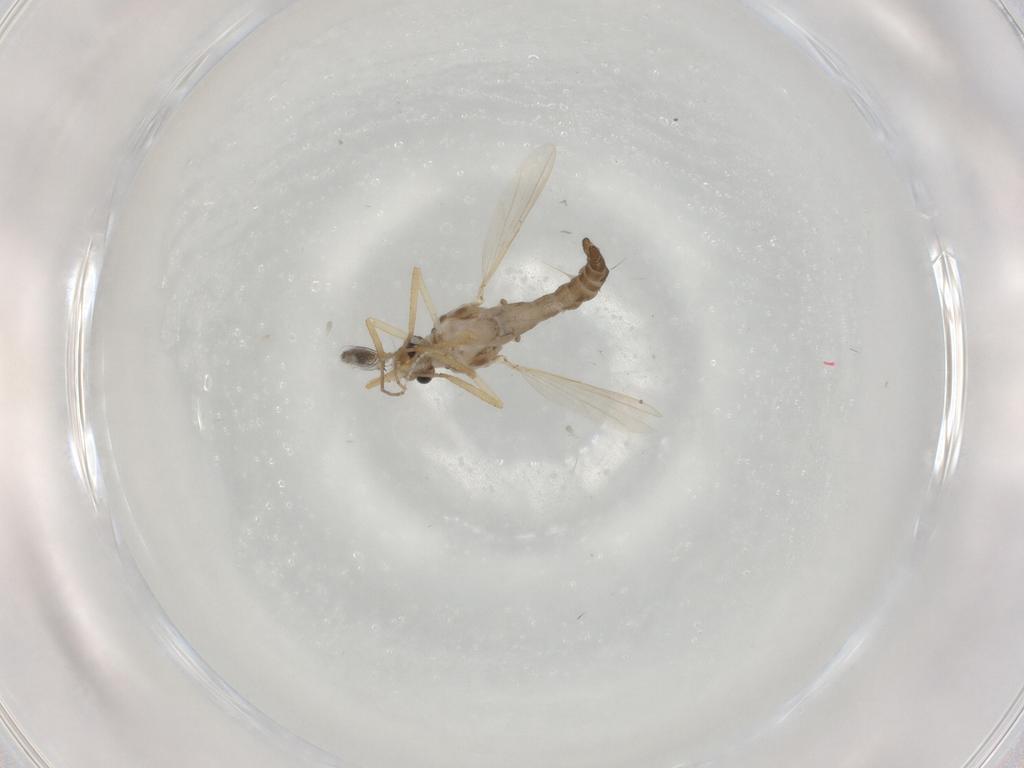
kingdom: Animalia
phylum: Arthropoda
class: Insecta
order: Diptera
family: Ceratopogonidae
